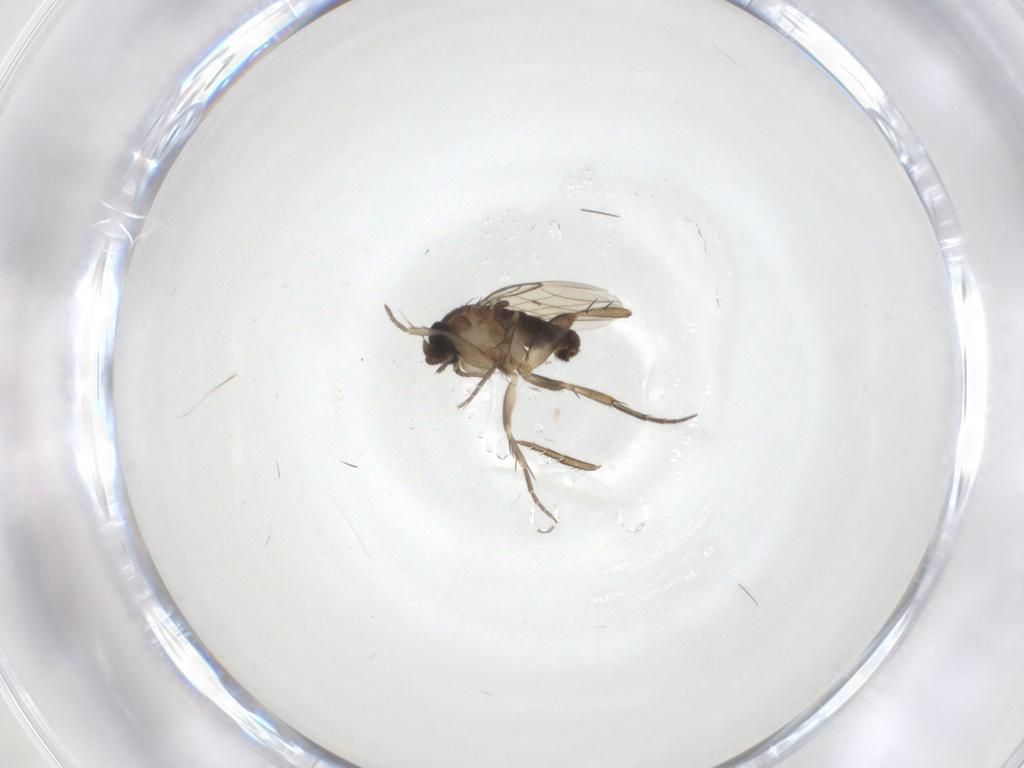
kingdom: Animalia
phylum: Arthropoda
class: Insecta
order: Diptera
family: Phoridae
